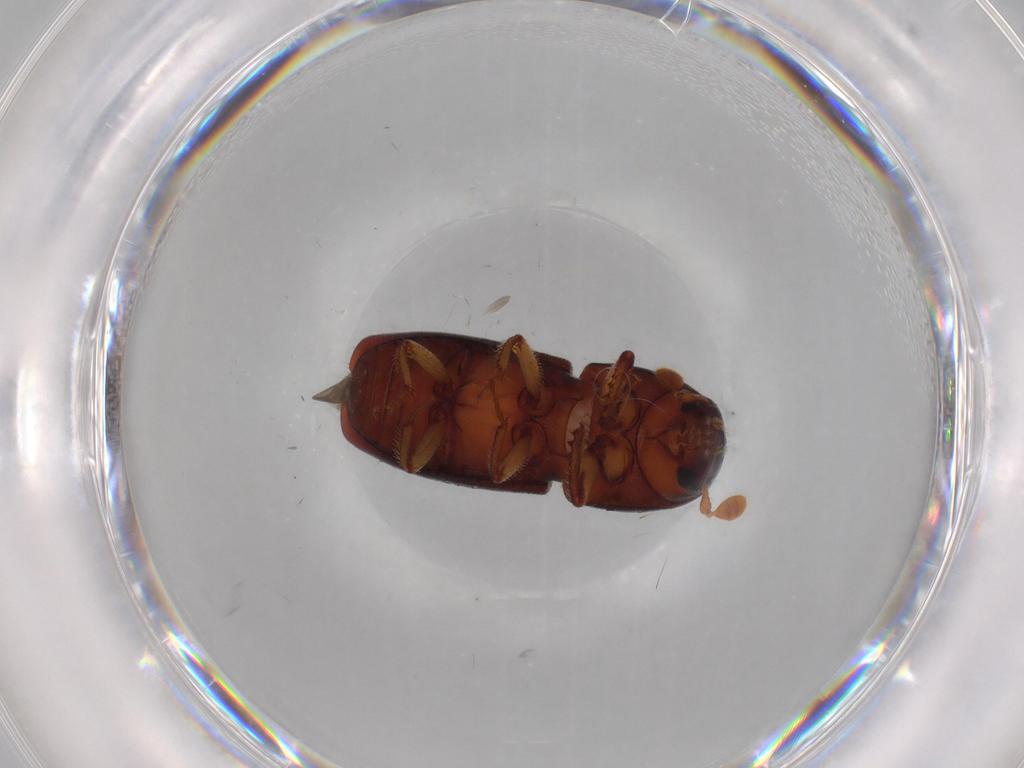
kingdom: Animalia
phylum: Arthropoda
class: Insecta
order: Coleoptera
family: Curculionidae
